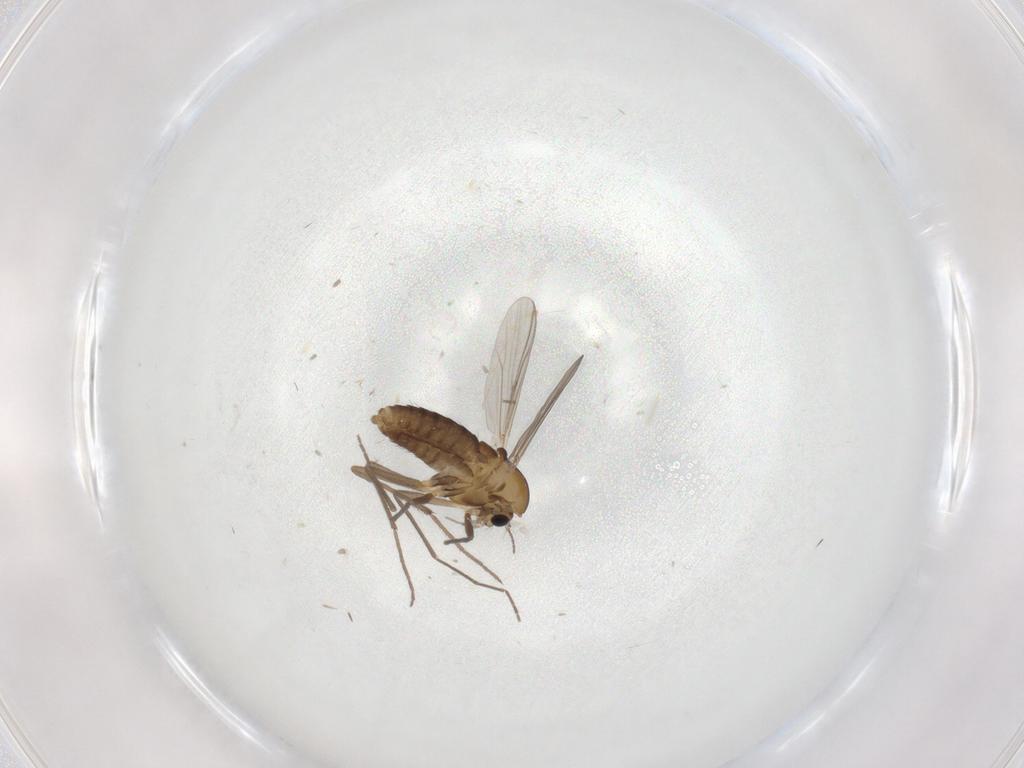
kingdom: Animalia
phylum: Arthropoda
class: Insecta
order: Diptera
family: Chironomidae
